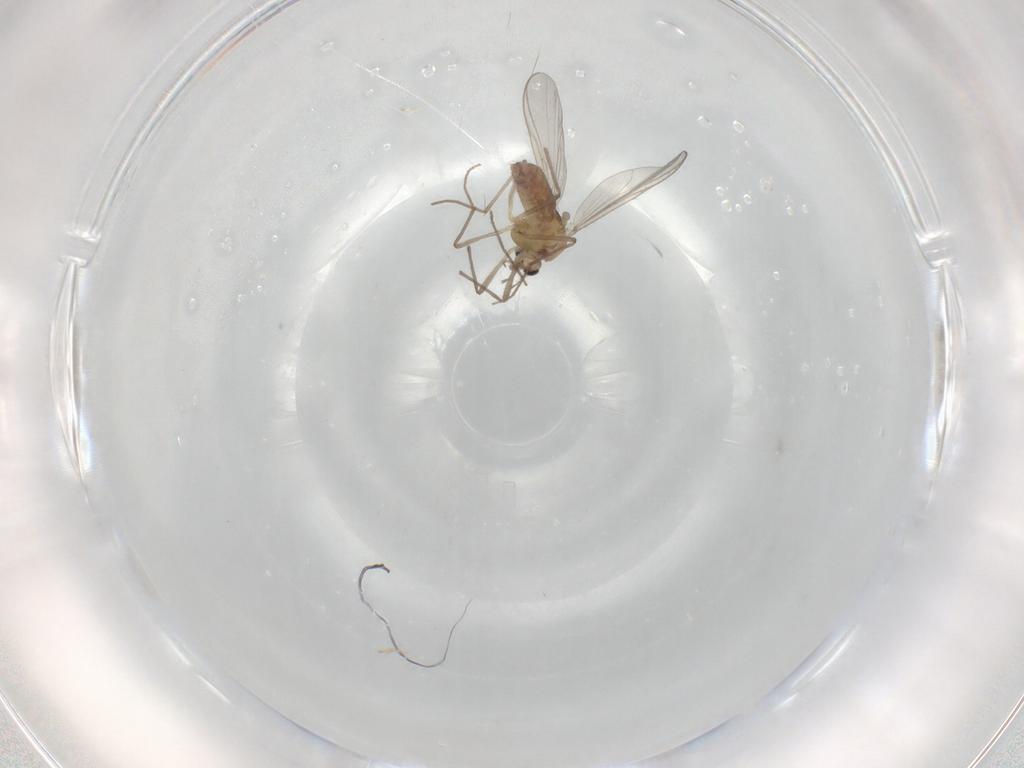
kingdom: Animalia
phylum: Arthropoda
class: Insecta
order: Diptera
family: Chironomidae
